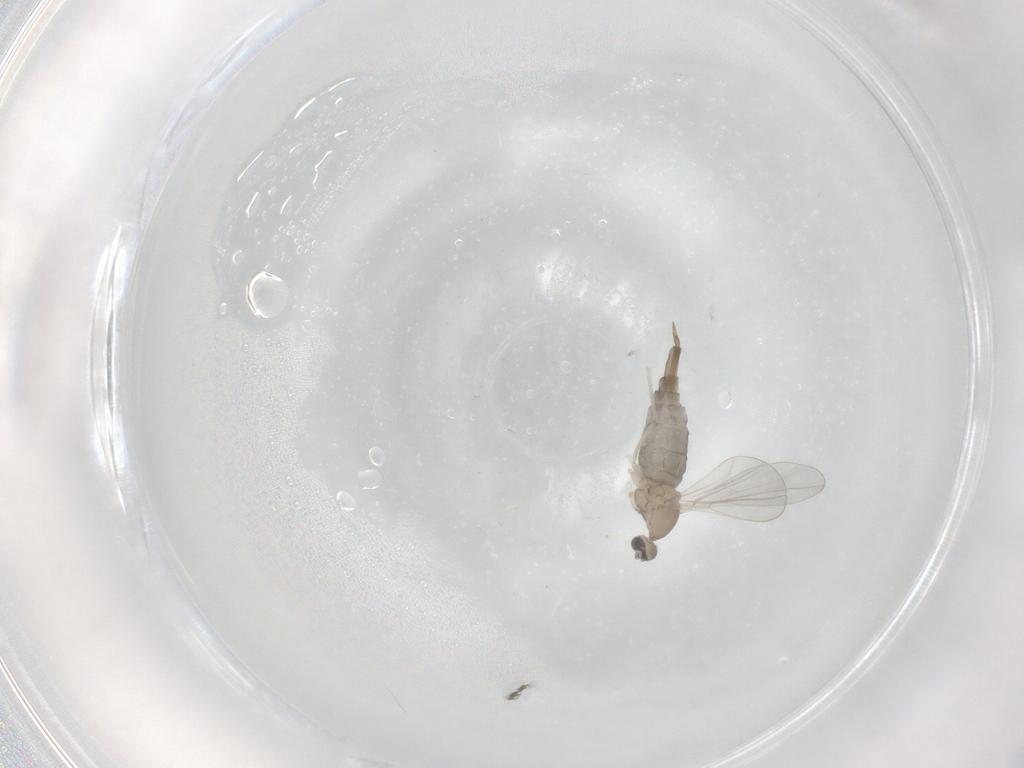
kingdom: Animalia
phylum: Arthropoda
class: Insecta
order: Diptera
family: Cecidomyiidae
